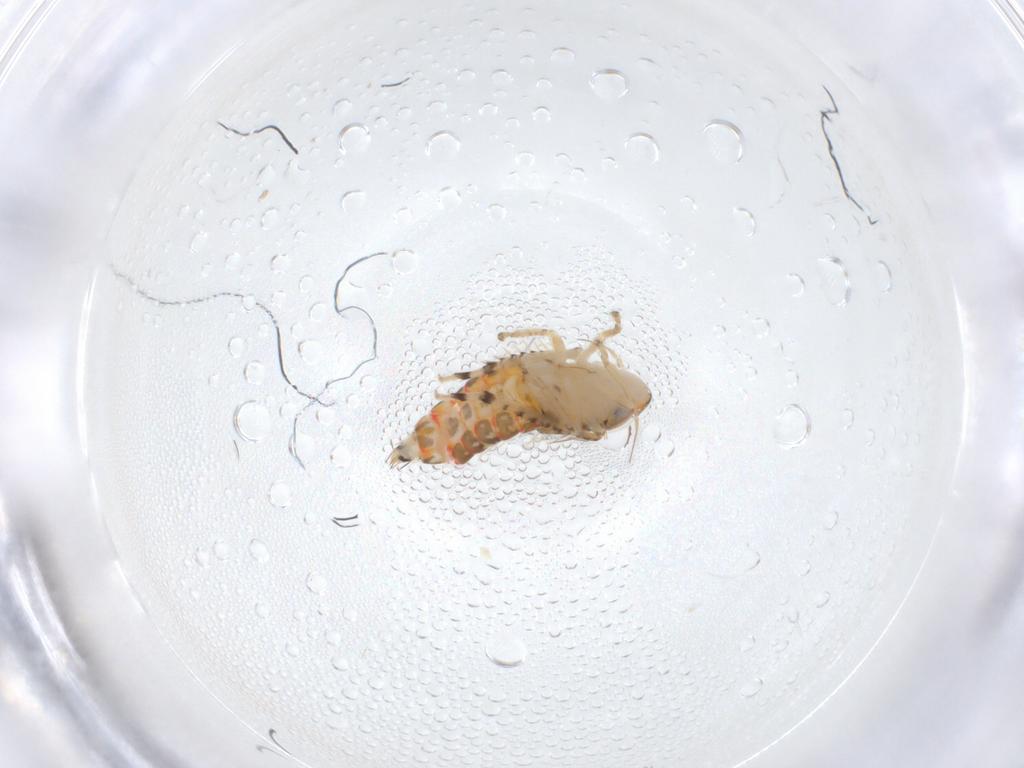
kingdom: Animalia
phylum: Arthropoda
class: Insecta
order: Hemiptera
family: Cicadellidae
